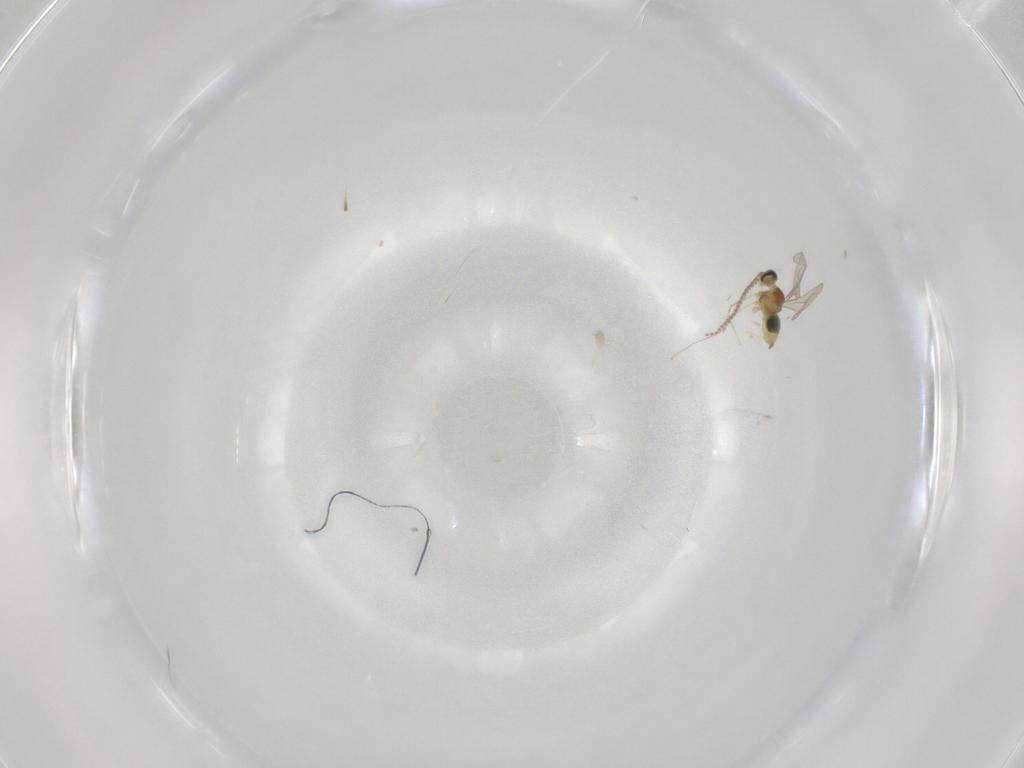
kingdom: Animalia
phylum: Arthropoda
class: Insecta
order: Diptera
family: Cecidomyiidae
